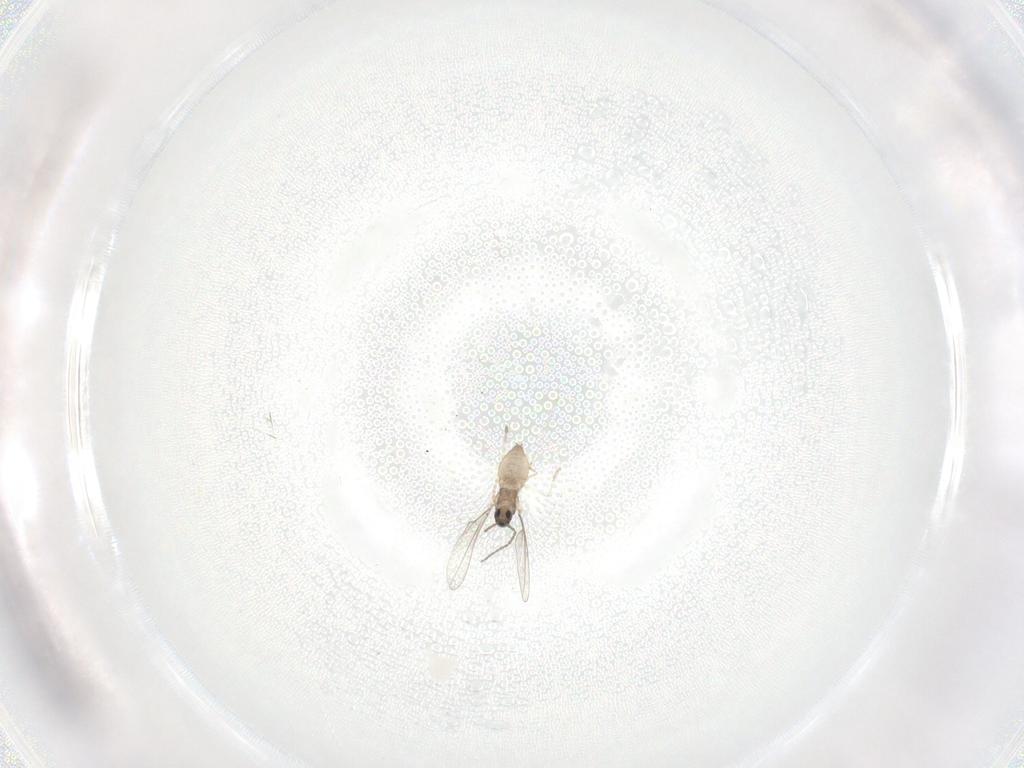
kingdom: Animalia
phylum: Arthropoda
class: Insecta
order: Diptera
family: Cecidomyiidae
